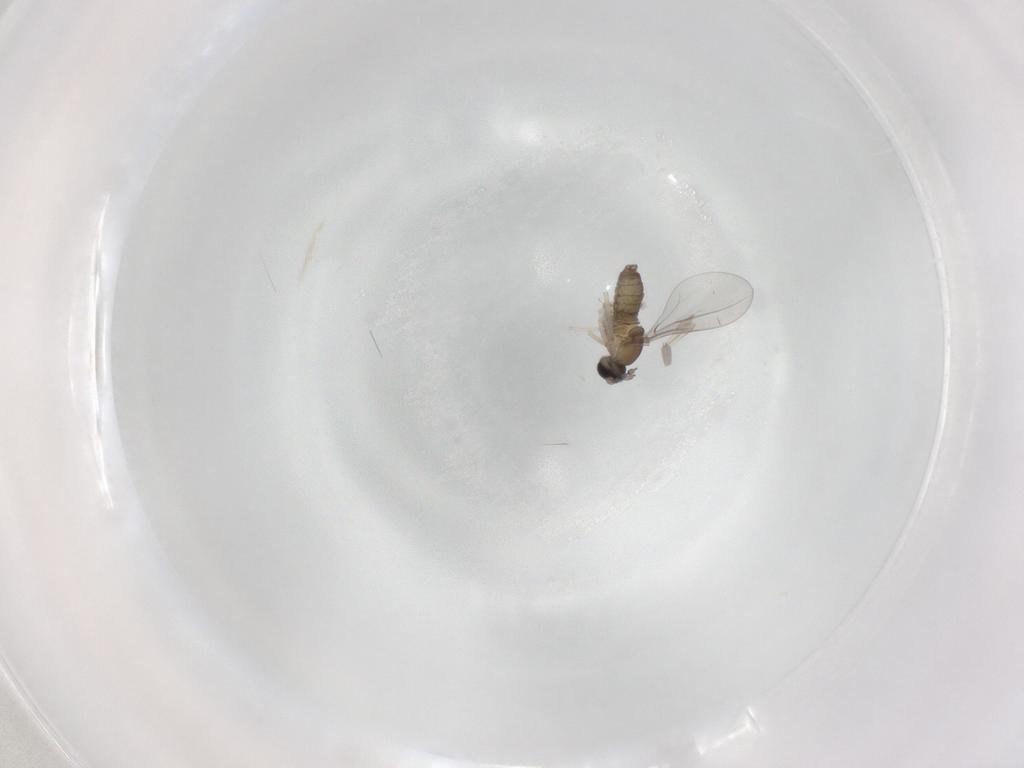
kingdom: Animalia
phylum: Arthropoda
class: Insecta
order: Diptera
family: Cecidomyiidae
